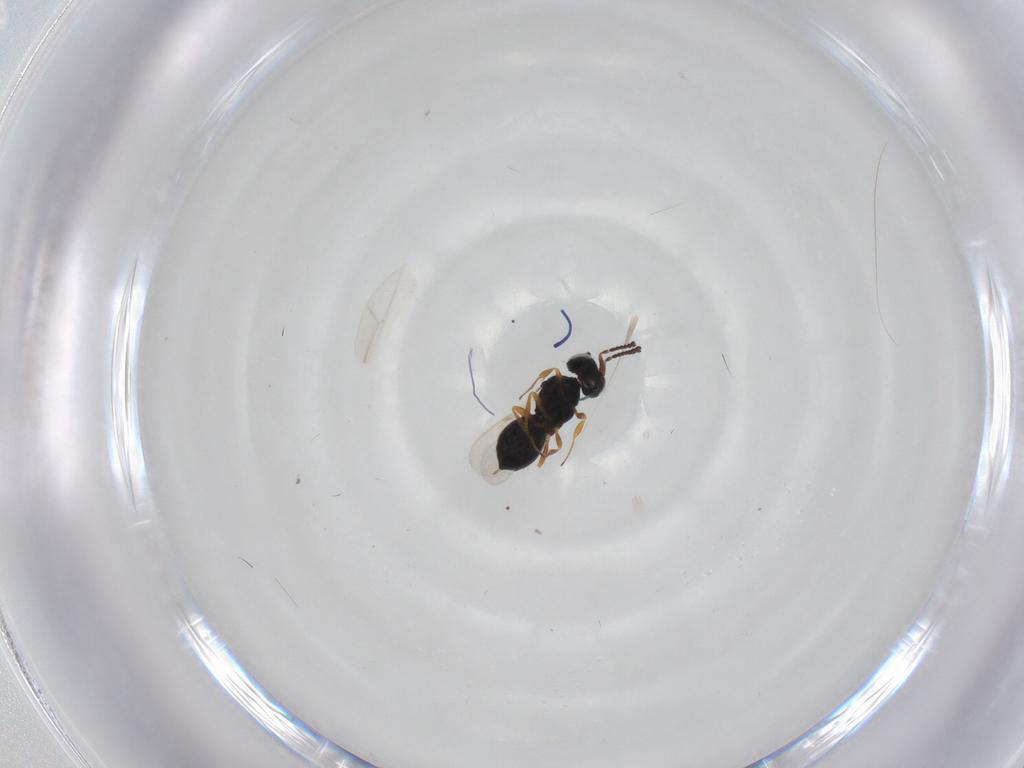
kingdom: Animalia
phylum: Arthropoda
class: Insecta
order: Hymenoptera
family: Scelionidae
